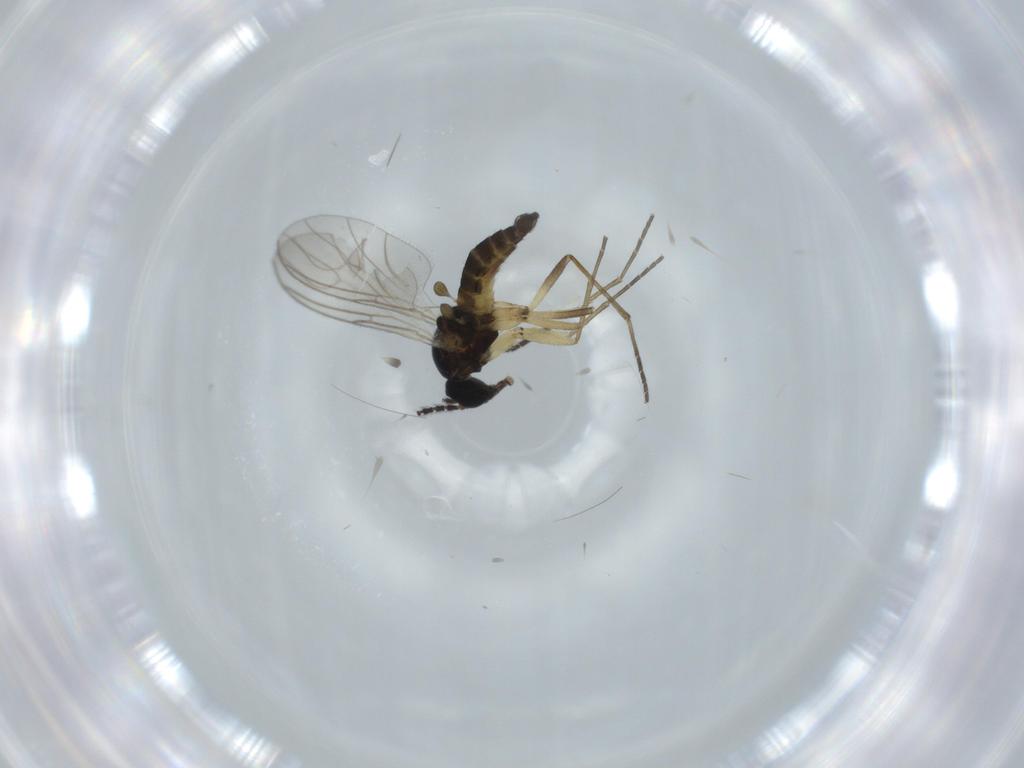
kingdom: Animalia
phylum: Arthropoda
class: Insecta
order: Diptera
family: Sciaridae
